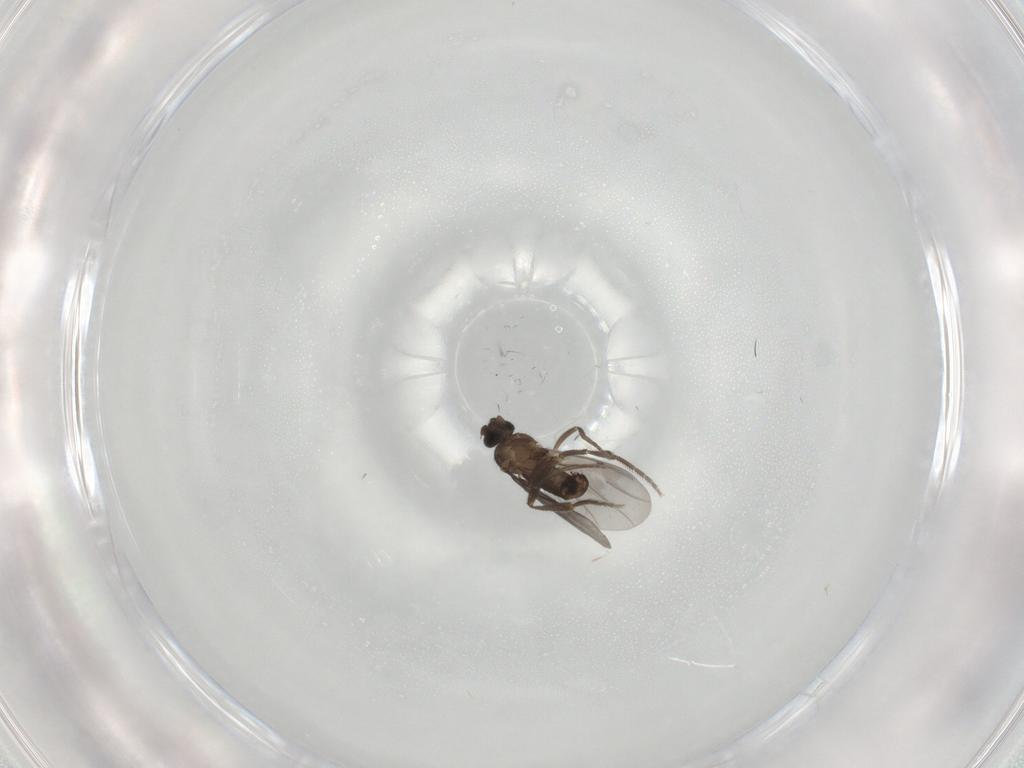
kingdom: Animalia
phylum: Arthropoda
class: Insecta
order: Diptera
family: Phoridae
